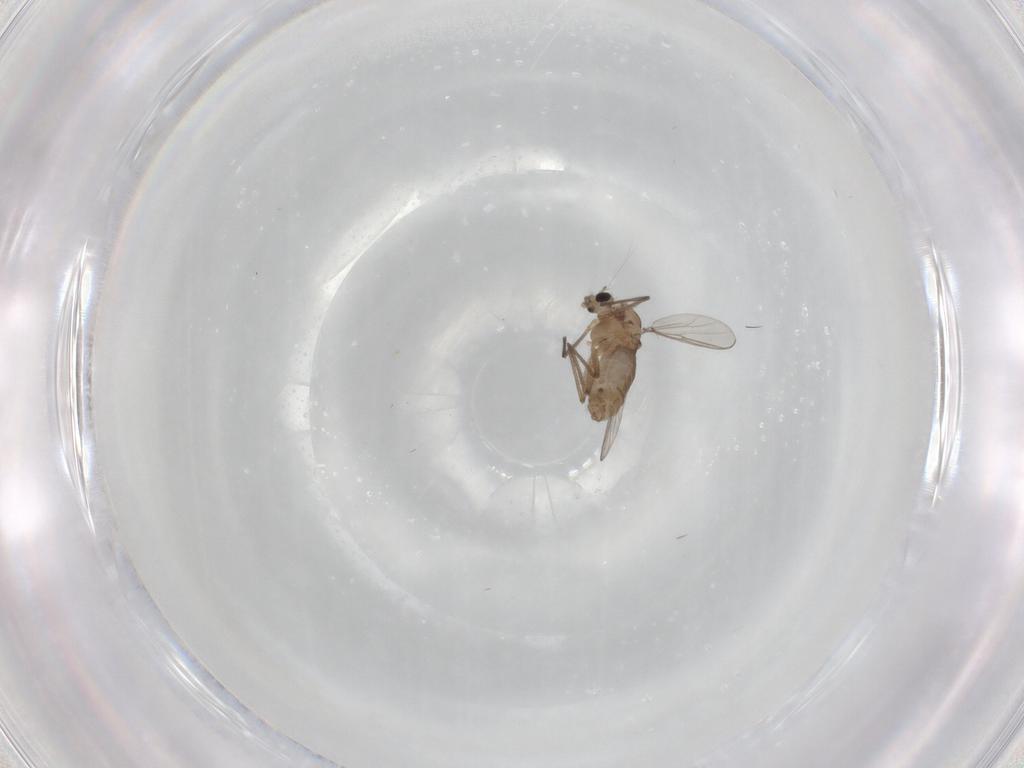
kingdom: Animalia
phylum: Arthropoda
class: Insecta
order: Diptera
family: Chironomidae
